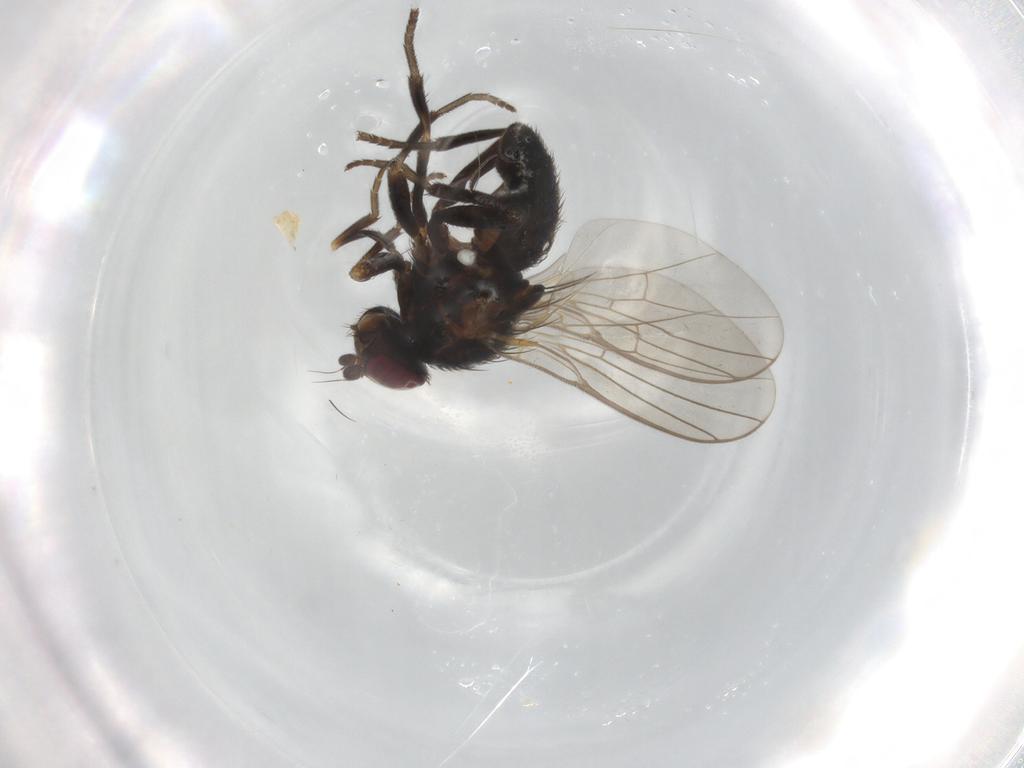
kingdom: Animalia
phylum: Arthropoda
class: Insecta
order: Diptera
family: Agromyzidae
